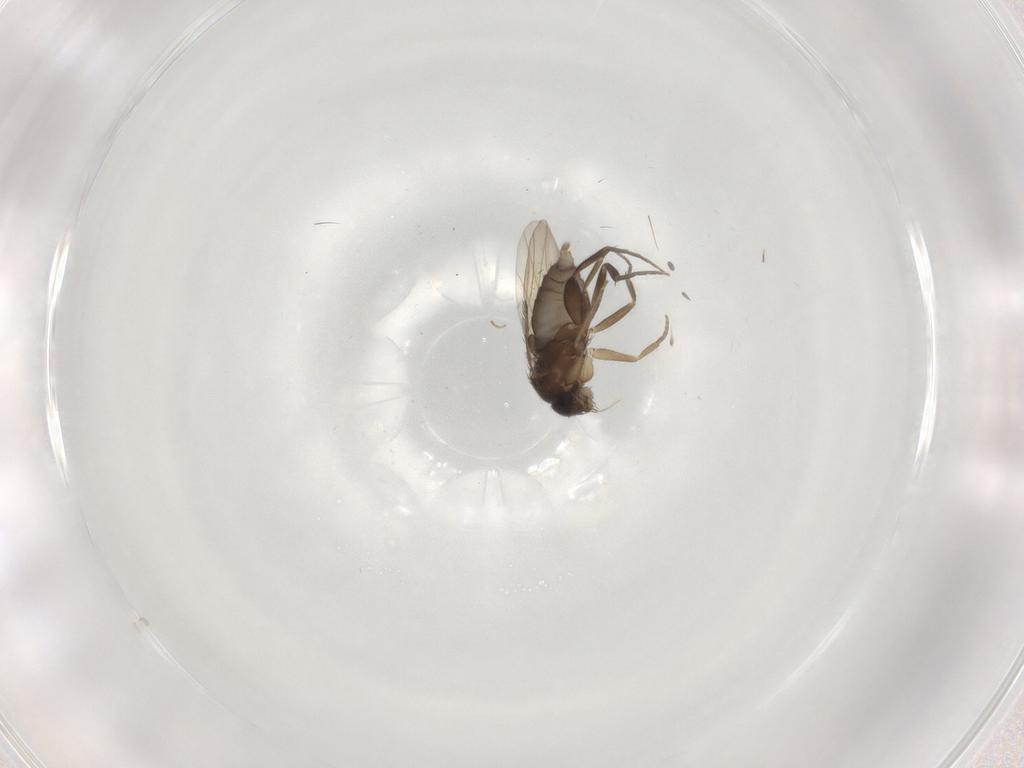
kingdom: Animalia
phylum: Arthropoda
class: Insecta
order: Diptera
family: Phoridae
